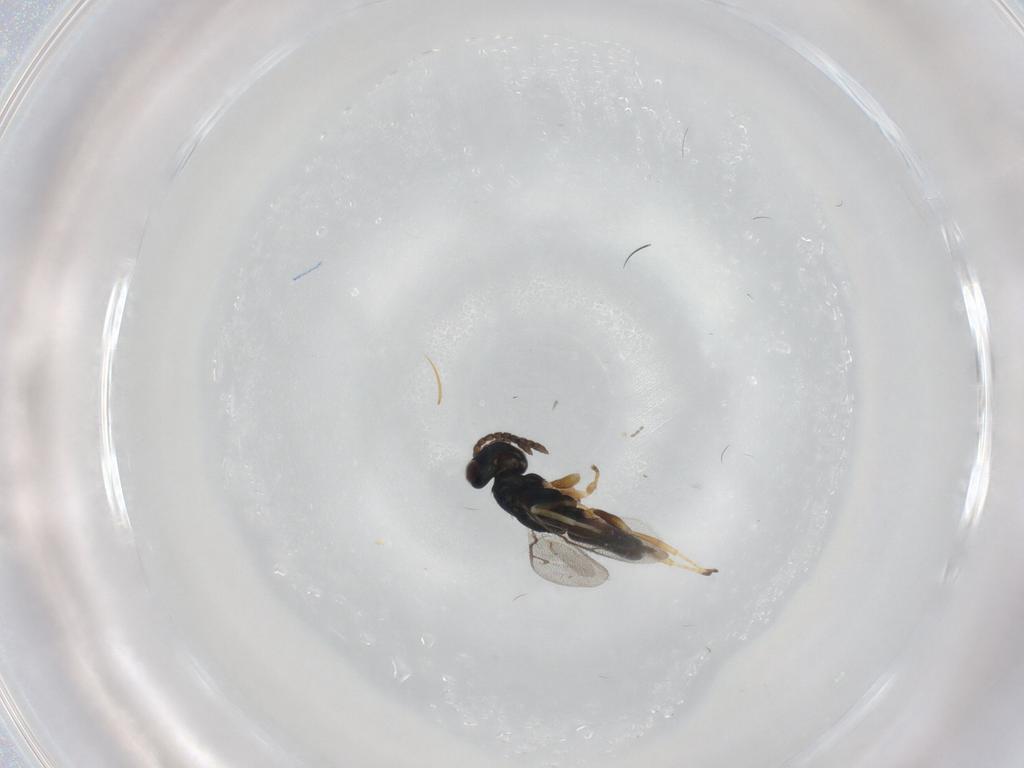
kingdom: Animalia
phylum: Arthropoda
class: Insecta
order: Hymenoptera
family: Pteromalidae
